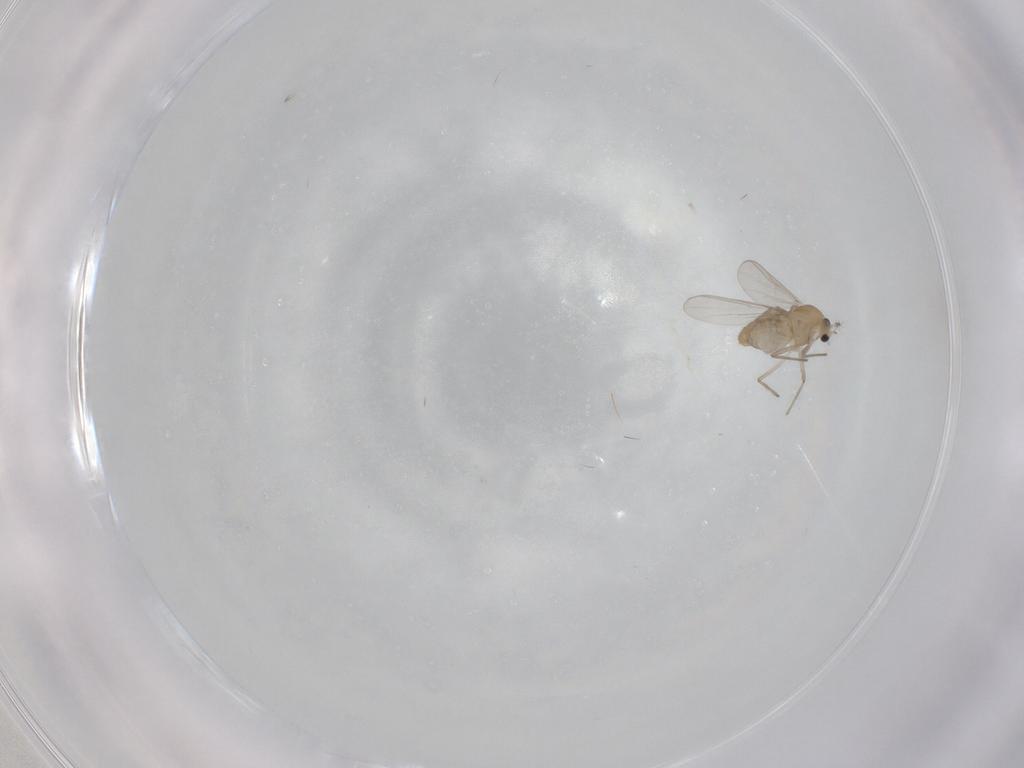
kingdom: Animalia
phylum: Arthropoda
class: Insecta
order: Diptera
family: Chironomidae
